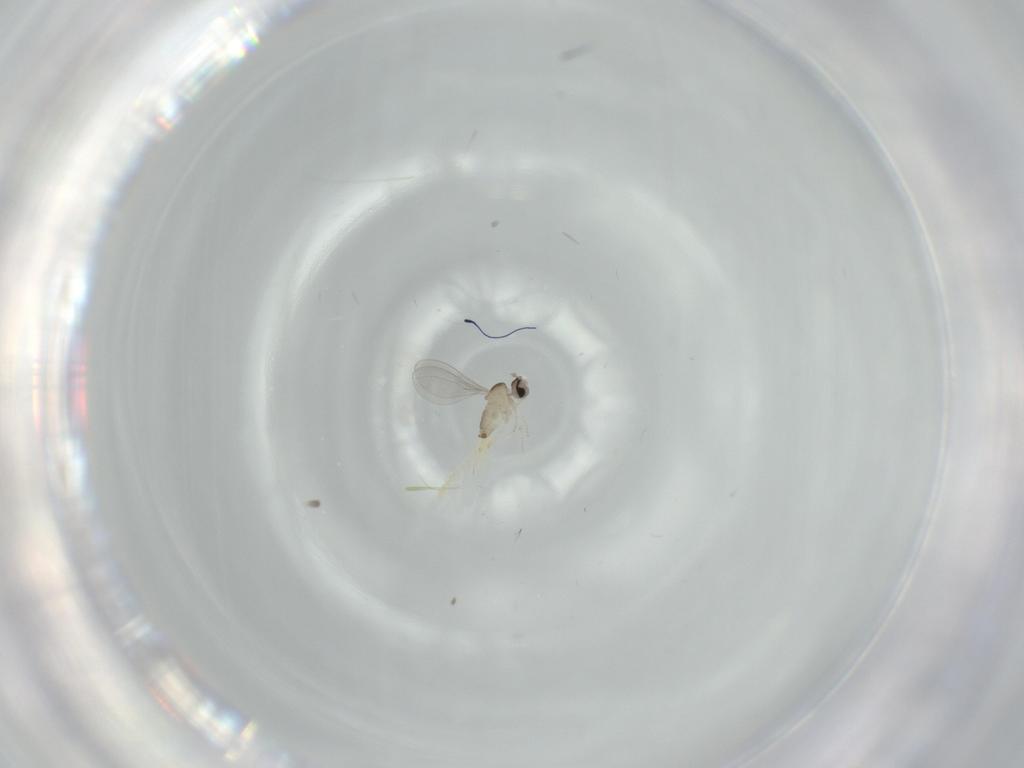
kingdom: Animalia
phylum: Arthropoda
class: Insecta
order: Diptera
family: Cecidomyiidae
